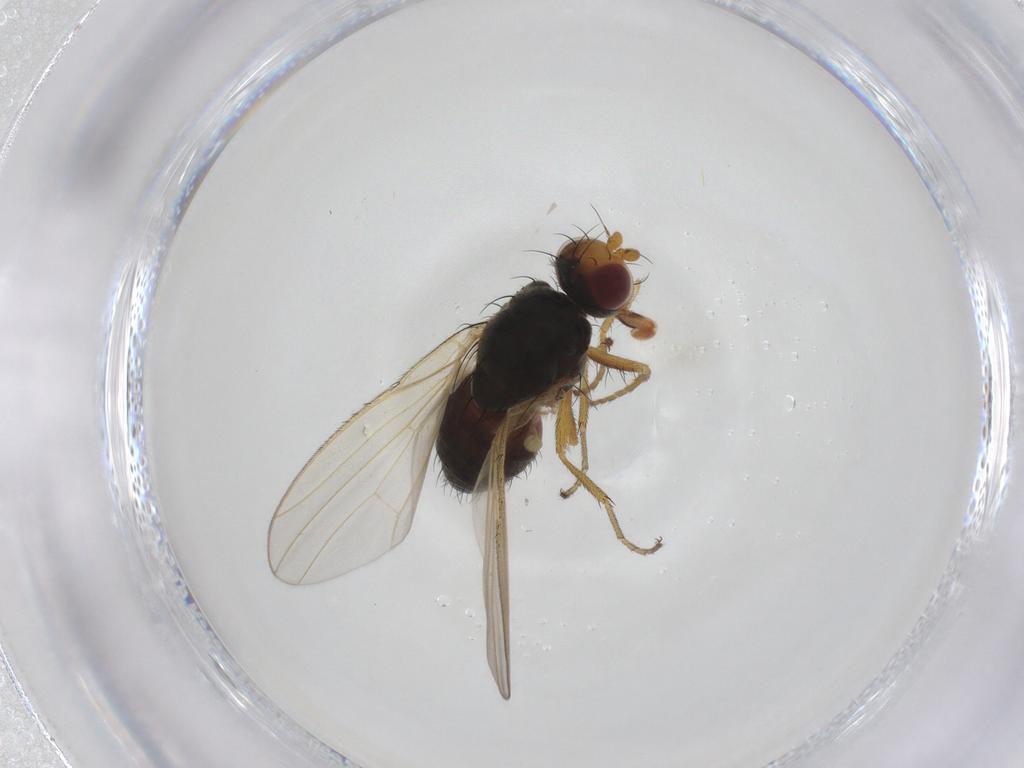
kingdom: Animalia
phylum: Arthropoda
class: Insecta
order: Diptera
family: Heleomyzidae
